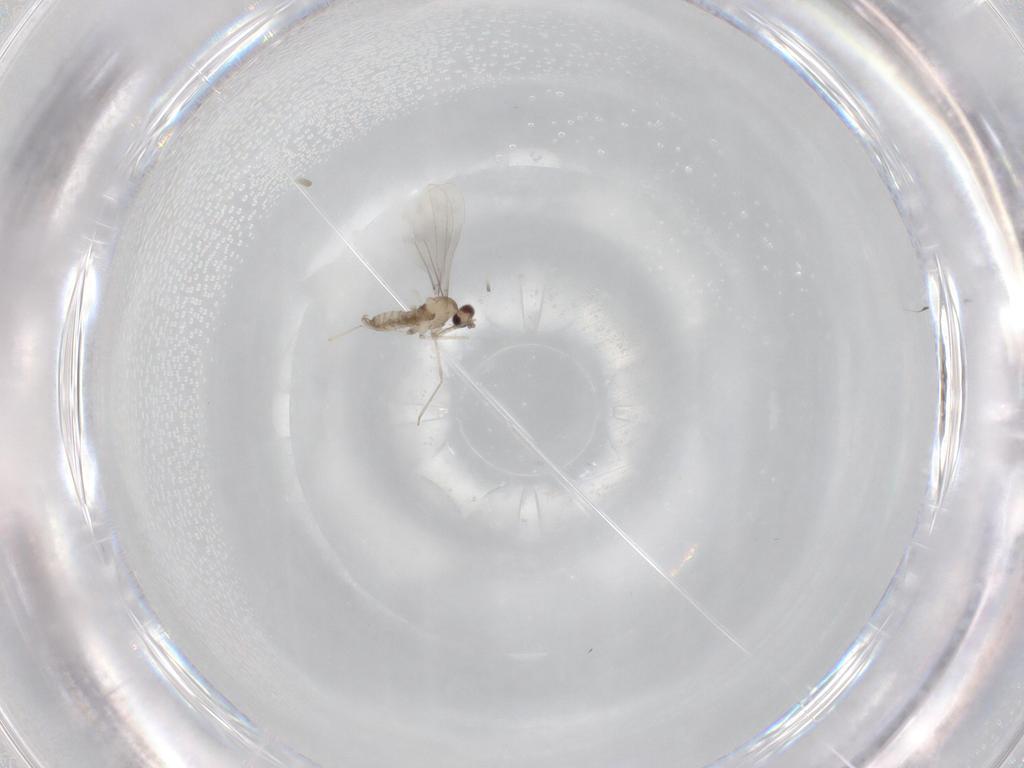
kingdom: Animalia
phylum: Arthropoda
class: Insecta
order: Diptera
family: Cecidomyiidae
